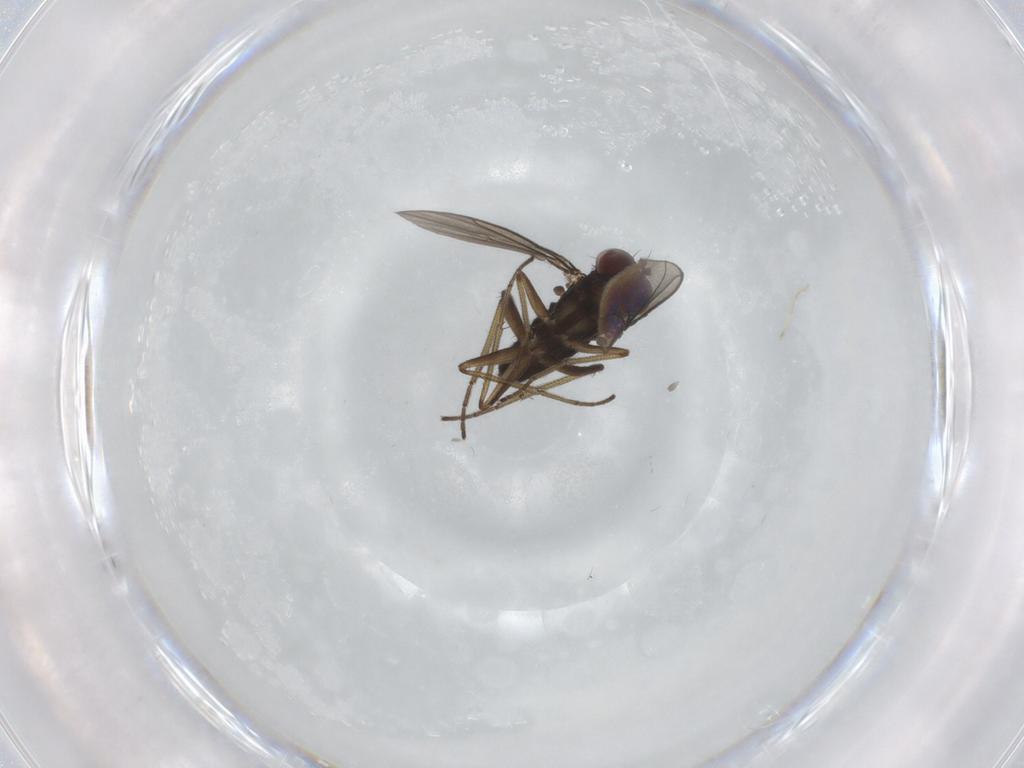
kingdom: Animalia
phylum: Arthropoda
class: Insecta
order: Diptera
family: Dolichopodidae
